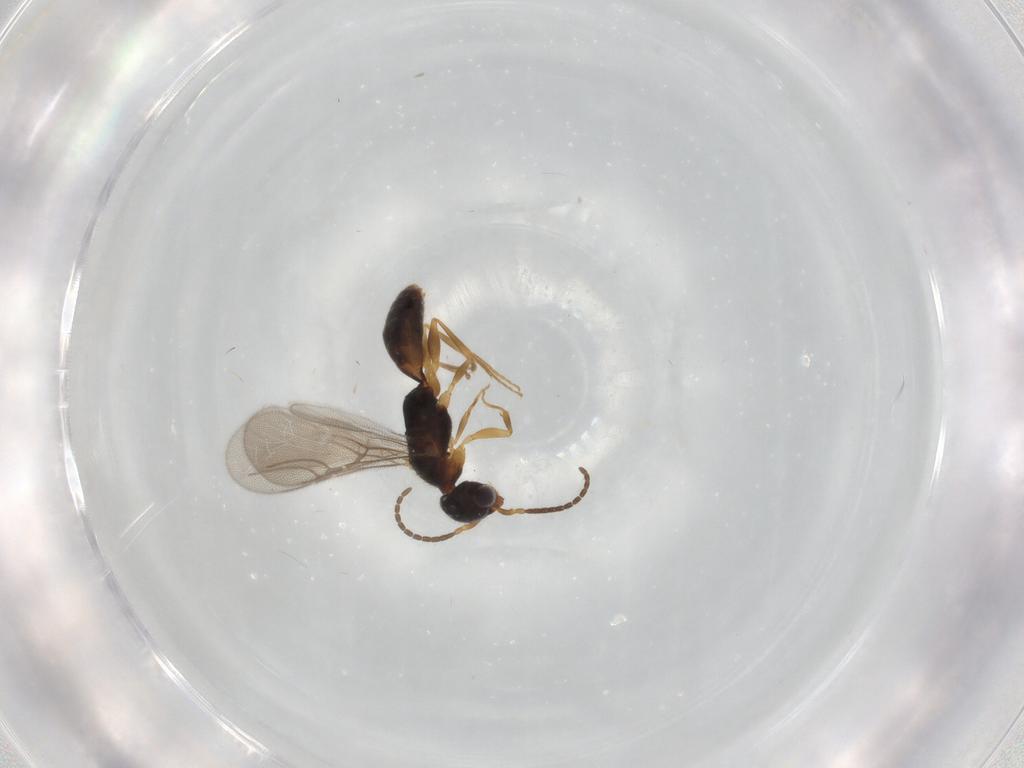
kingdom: Animalia
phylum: Arthropoda
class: Insecta
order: Hymenoptera
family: Bethylidae
